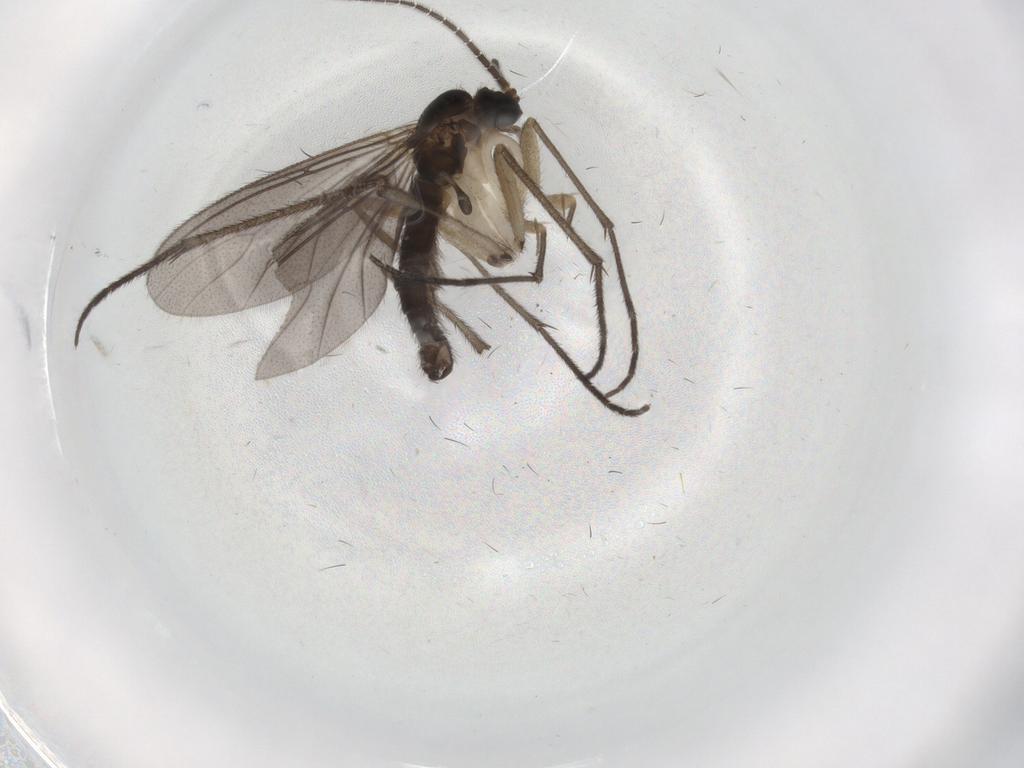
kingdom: Animalia
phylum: Arthropoda
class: Insecta
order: Diptera
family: Sciaridae
